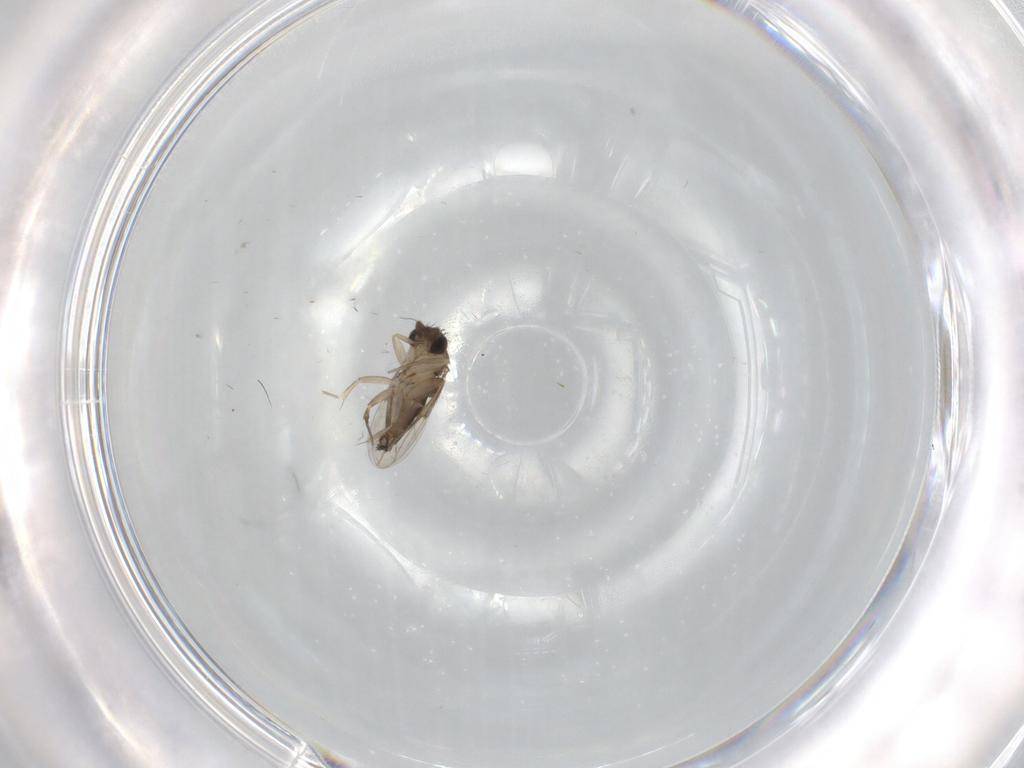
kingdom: Animalia
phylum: Arthropoda
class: Insecta
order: Diptera
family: Phoridae
